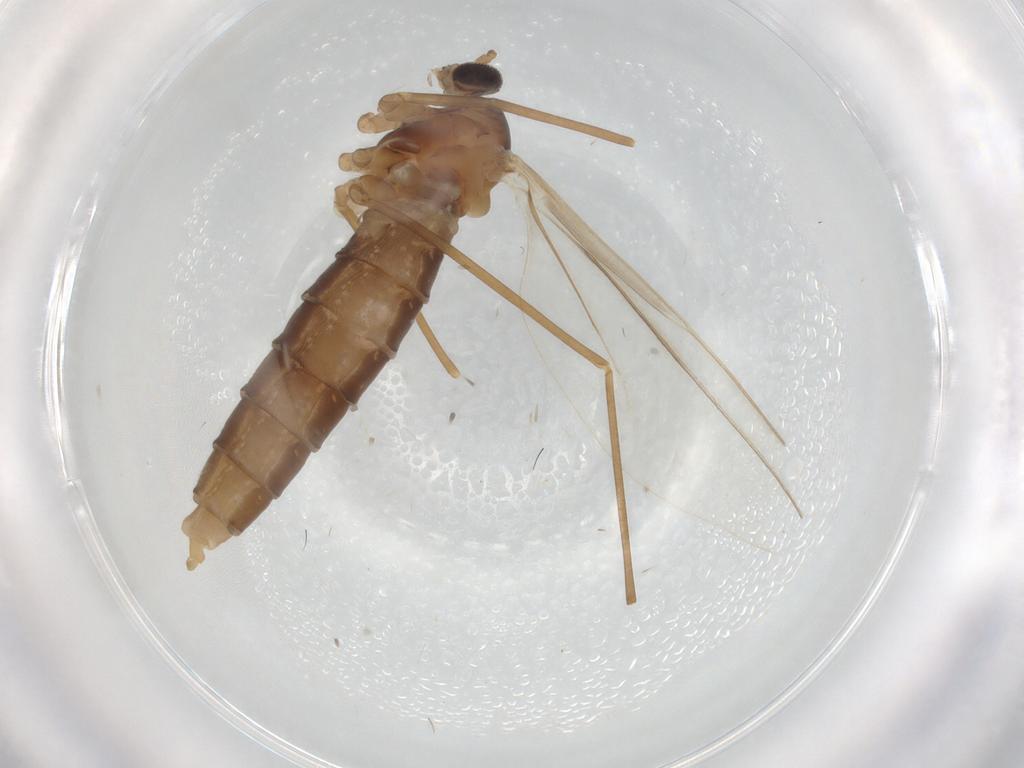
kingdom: Animalia
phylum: Arthropoda
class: Insecta
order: Diptera
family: Cecidomyiidae
